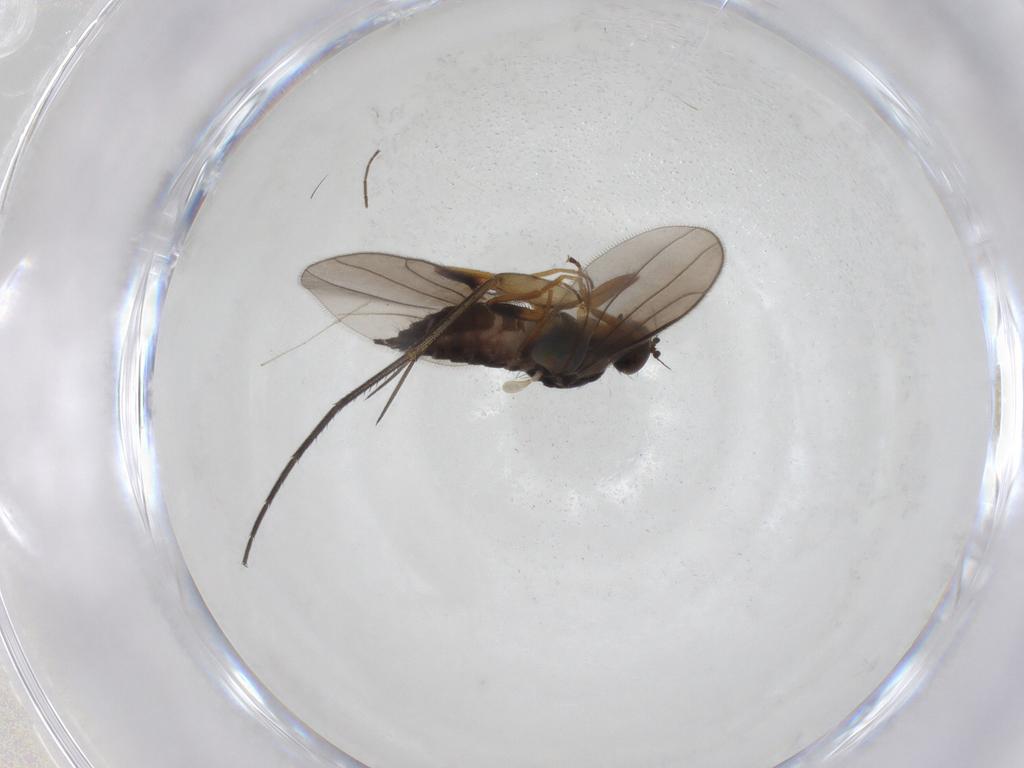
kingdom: Animalia
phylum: Arthropoda
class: Insecta
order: Diptera
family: Hybotidae
